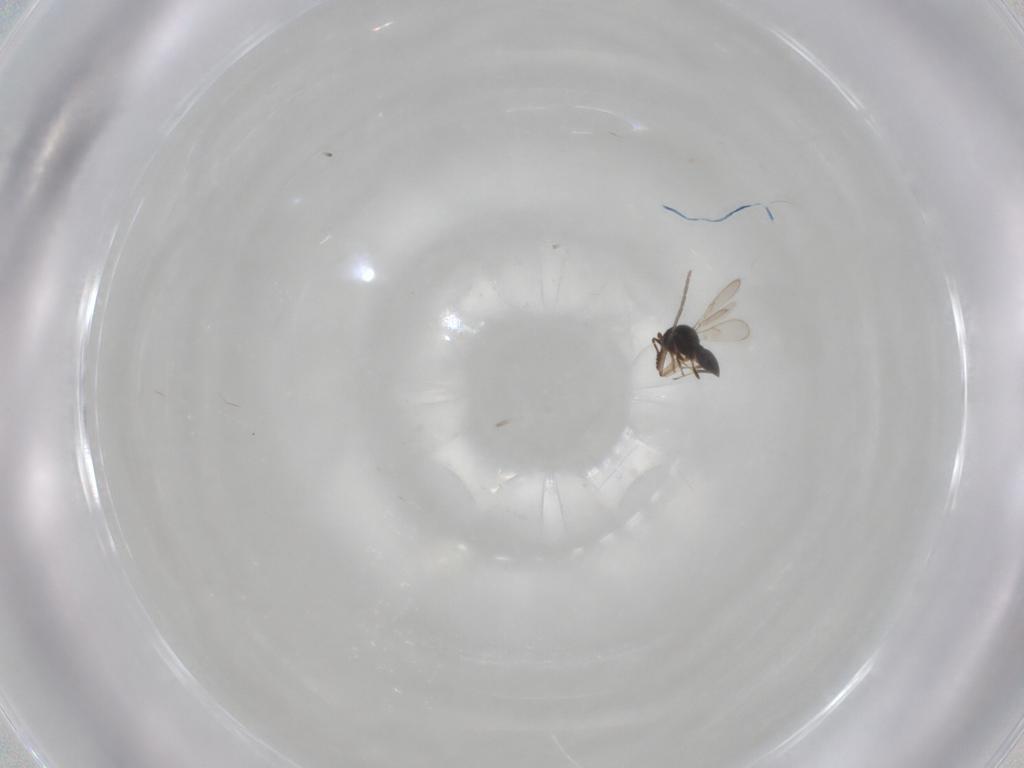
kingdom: Animalia
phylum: Arthropoda
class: Insecta
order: Hymenoptera
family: Scelionidae
